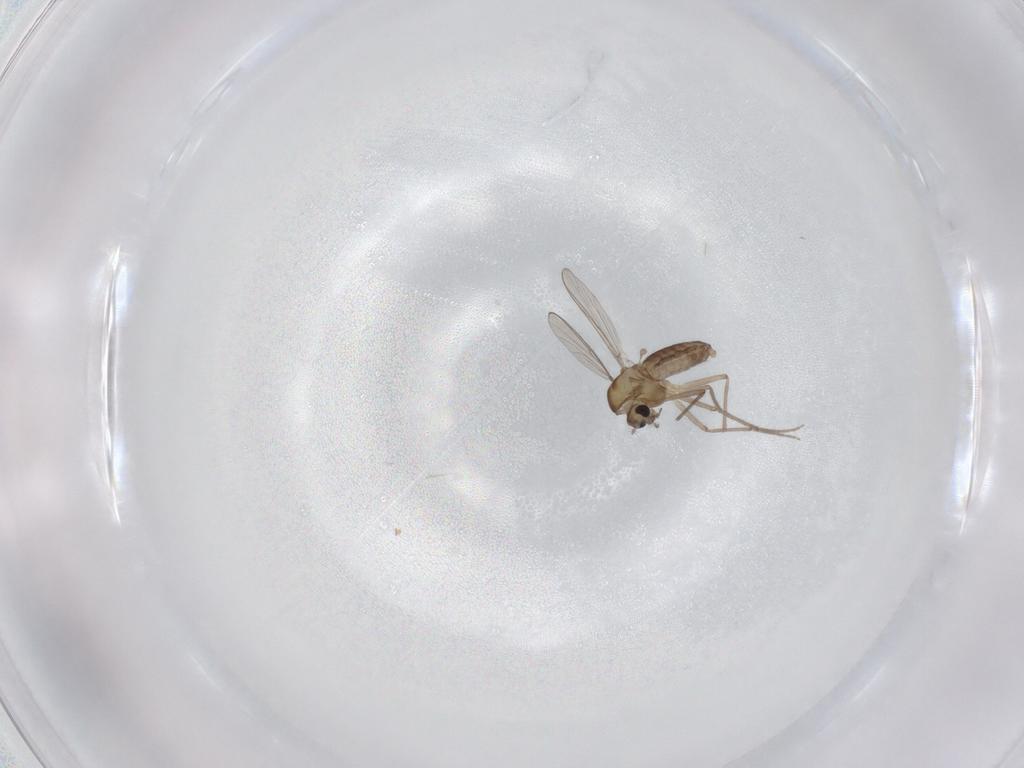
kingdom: Animalia
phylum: Arthropoda
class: Insecta
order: Diptera
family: Chironomidae
